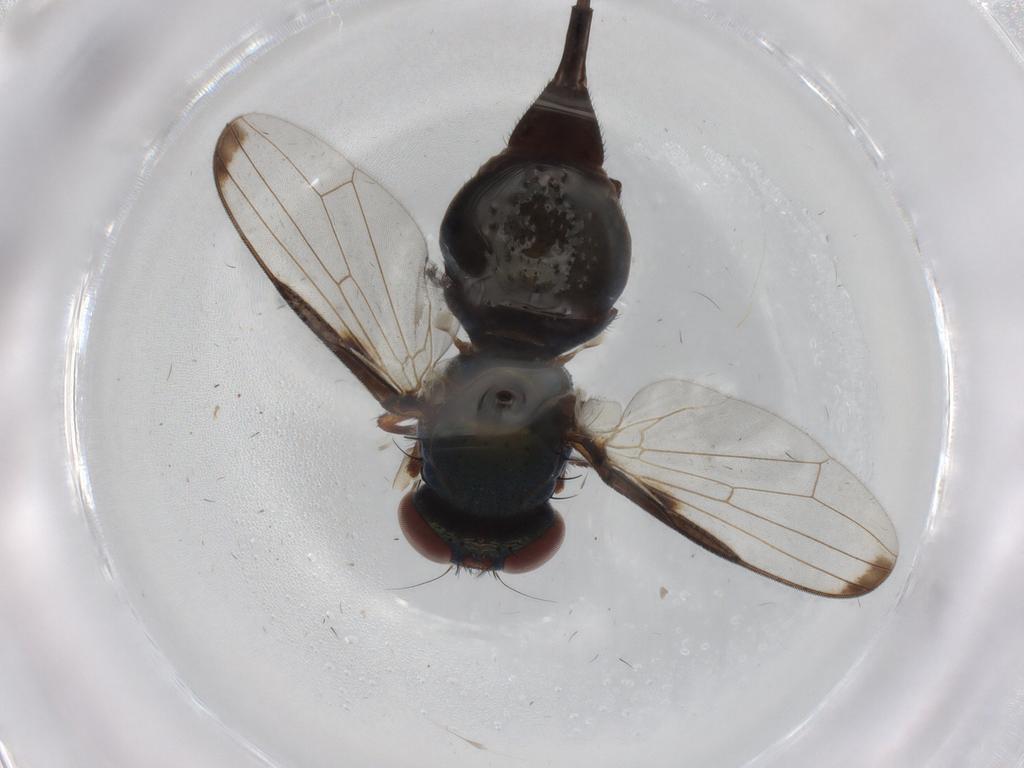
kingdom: Animalia
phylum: Arthropoda
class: Insecta
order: Diptera
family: Ulidiidae
